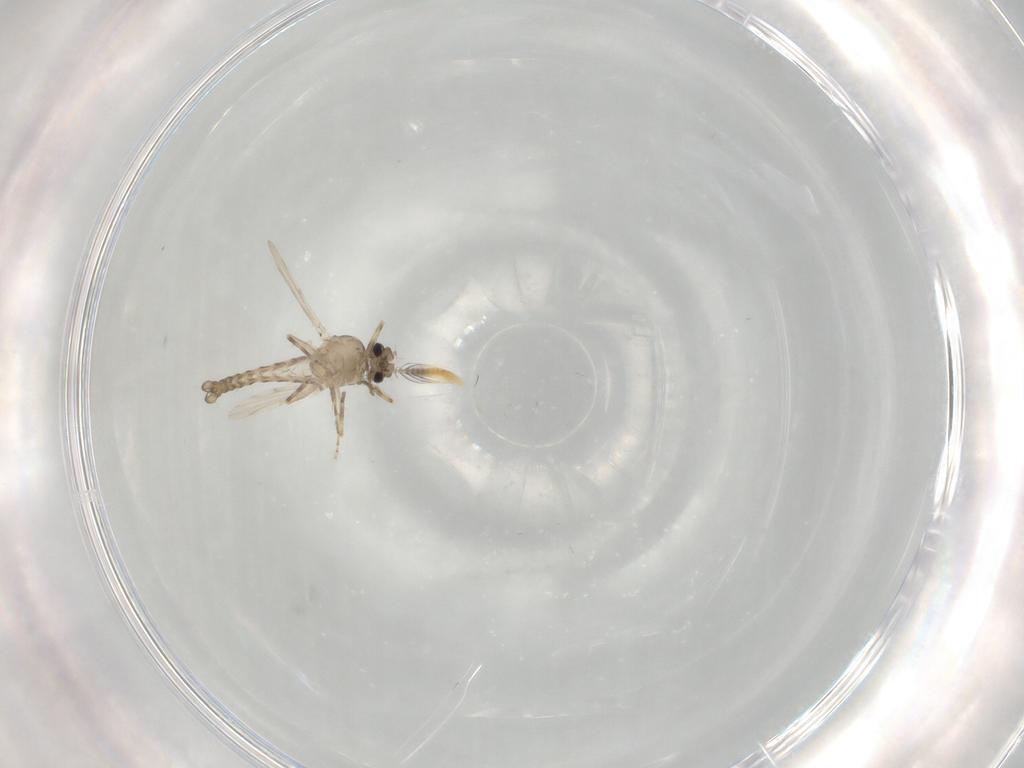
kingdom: Animalia
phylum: Arthropoda
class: Insecta
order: Diptera
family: Ceratopogonidae
